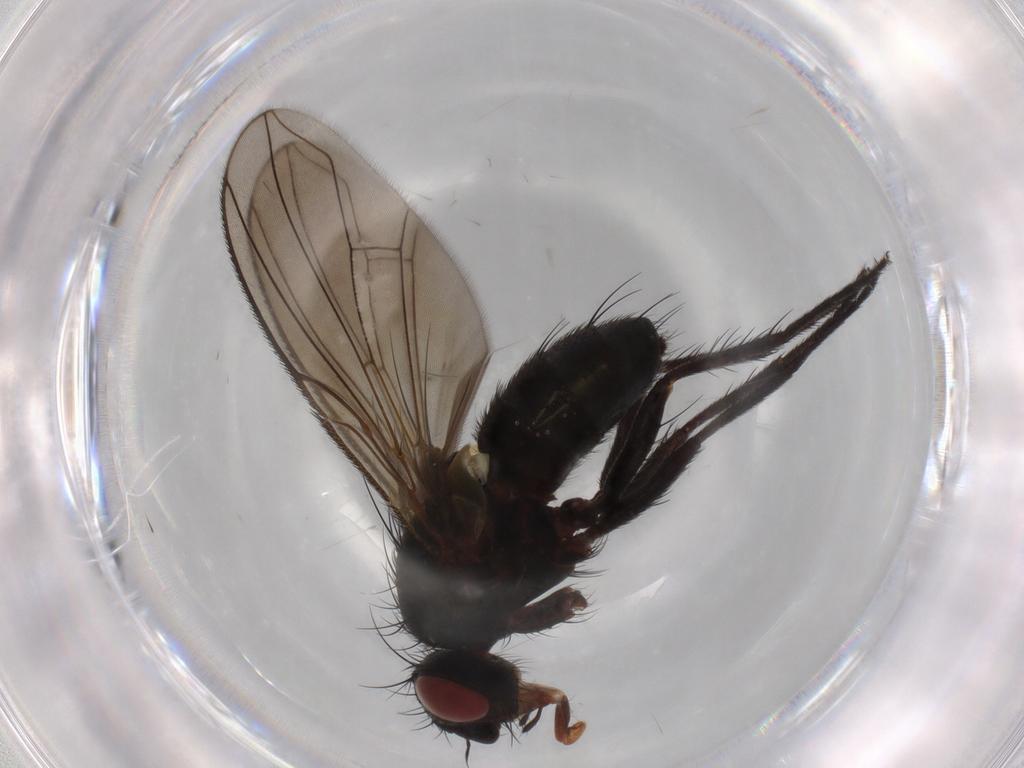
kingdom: Animalia
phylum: Arthropoda
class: Insecta
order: Diptera
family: Tachinidae
